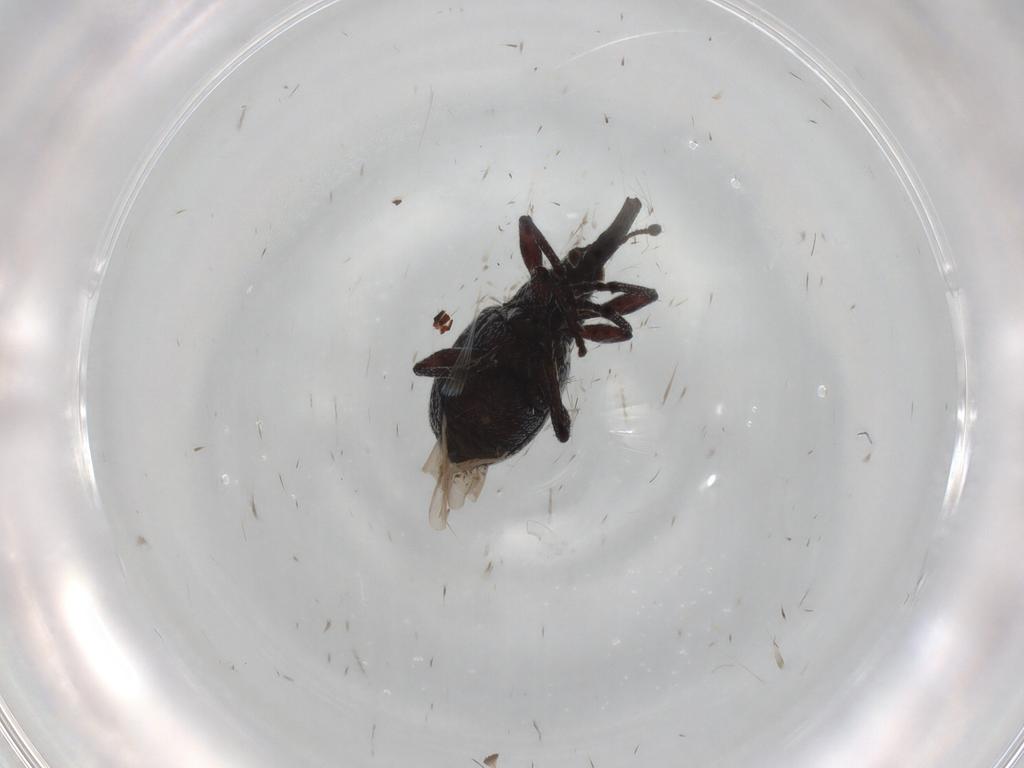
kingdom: Animalia
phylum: Arthropoda
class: Insecta
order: Coleoptera
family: Brentidae
